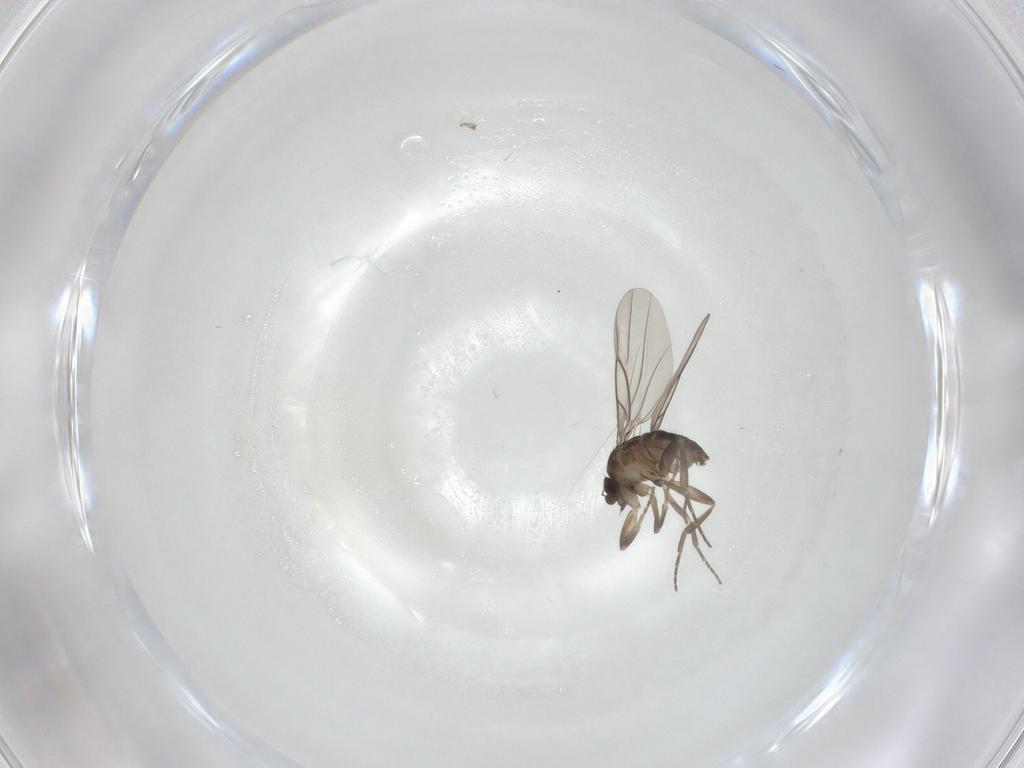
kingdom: Animalia
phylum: Arthropoda
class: Insecta
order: Diptera
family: Phoridae
